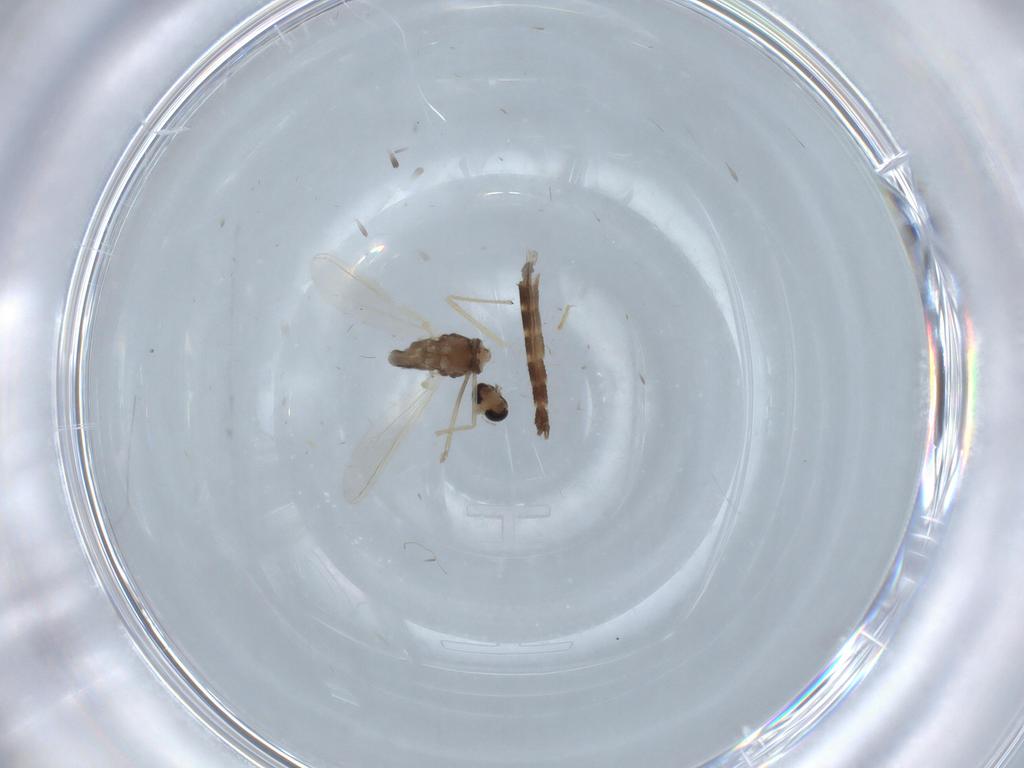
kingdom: Animalia
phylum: Arthropoda
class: Insecta
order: Diptera
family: Chironomidae
